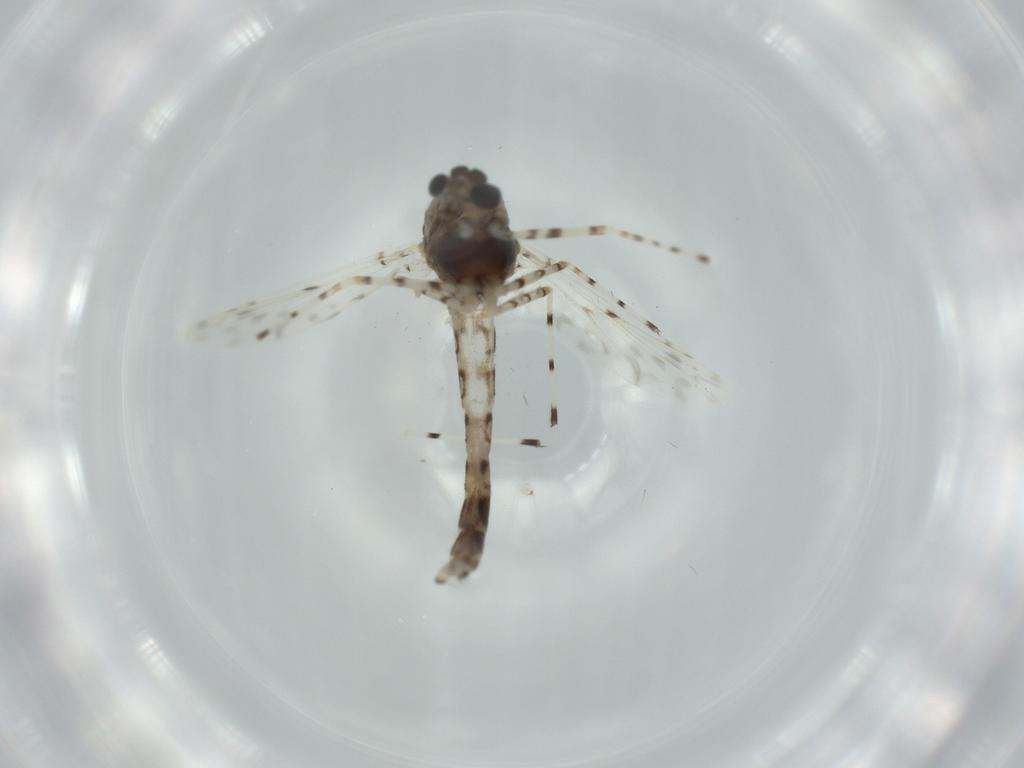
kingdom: Animalia
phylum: Arthropoda
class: Insecta
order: Diptera
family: Chironomidae
